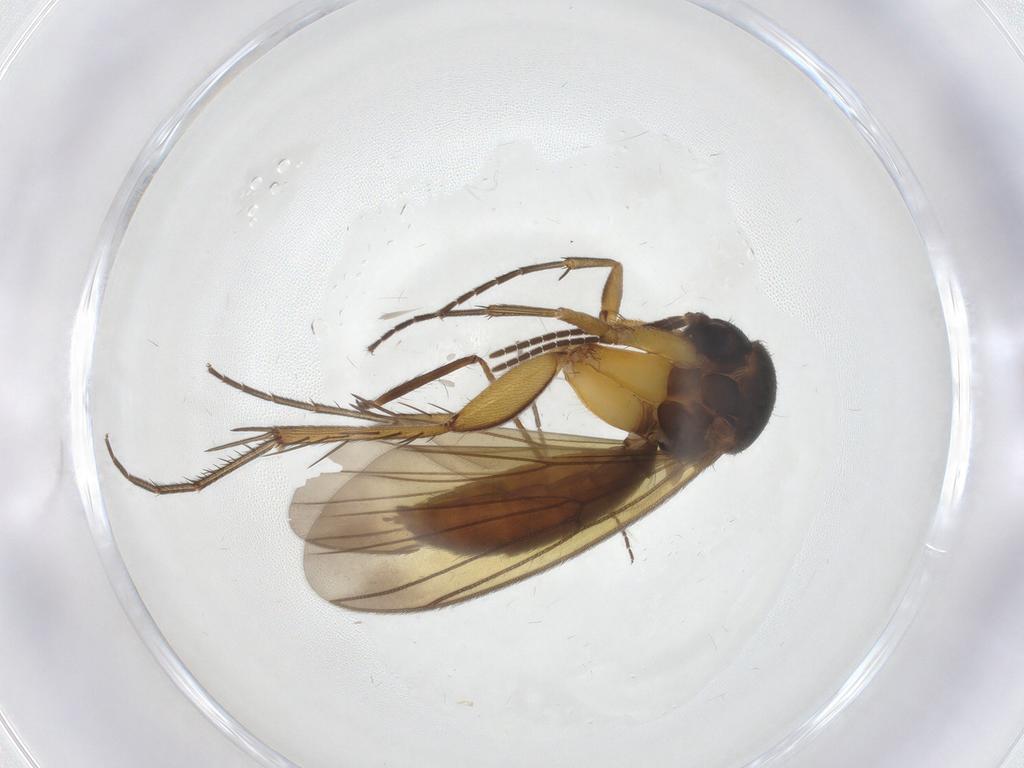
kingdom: Animalia
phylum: Arthropoda
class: Insecta
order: Diptera
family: Mycetophilidae
